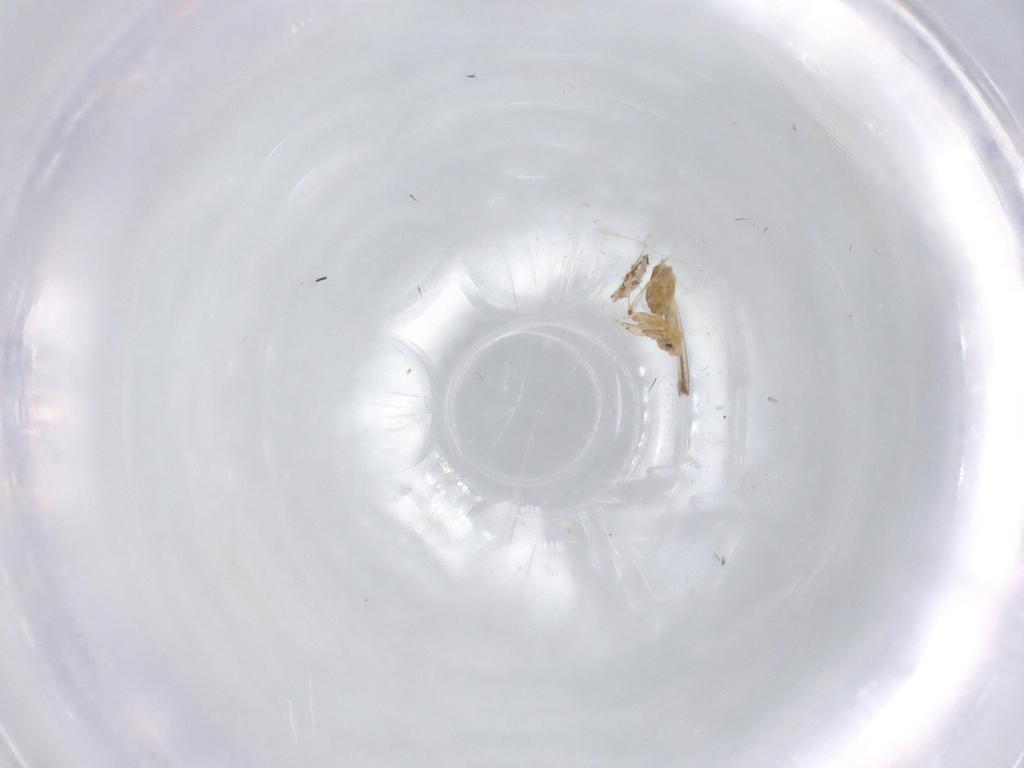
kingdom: Animalia
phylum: Arthropoda
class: Insecta
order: Hemiptera
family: Aleyrodidae
